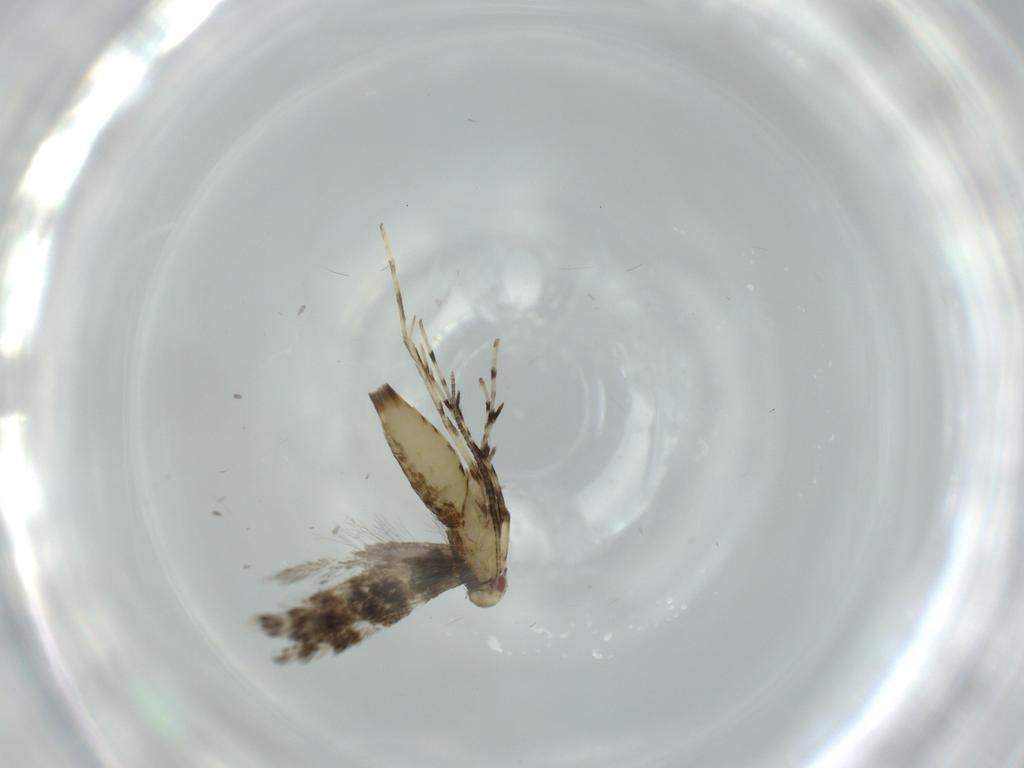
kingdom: Animalia
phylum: Arthropoda
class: Insecta
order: Lepidoptera
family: Gracillariidae
